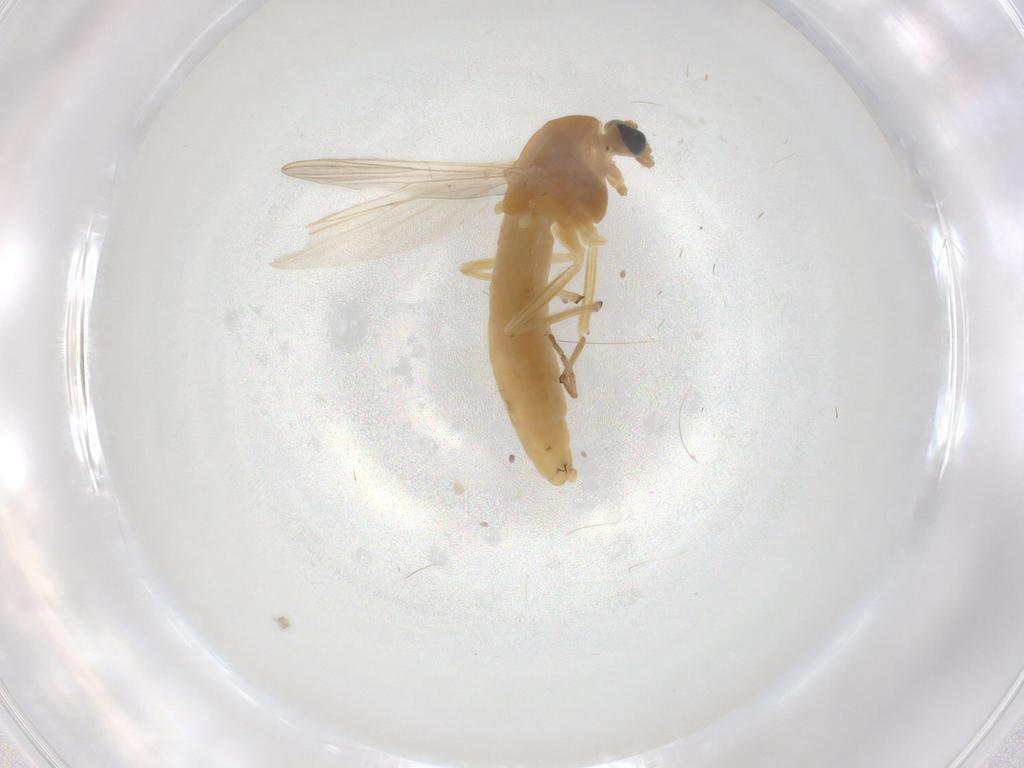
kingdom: Animalia
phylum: Arthropoda
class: Insecta
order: Diptera
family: Chironomidae
